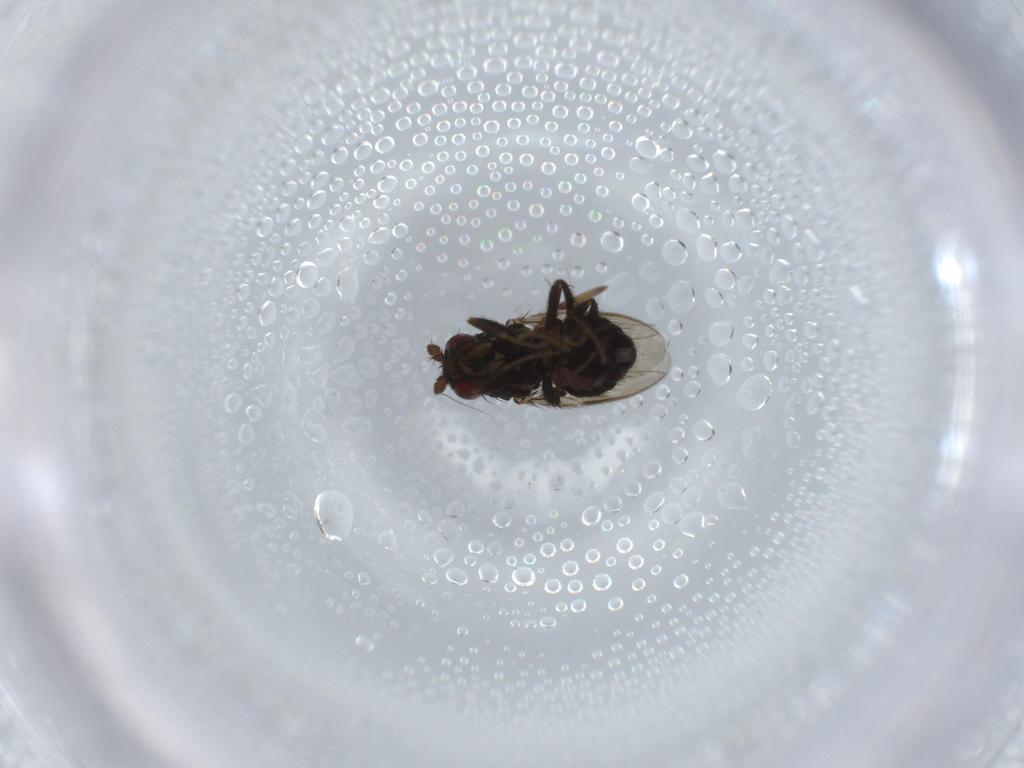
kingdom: Animalia
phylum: Arthropoda
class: Insecta
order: Diptera
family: Sphaeroceridae
